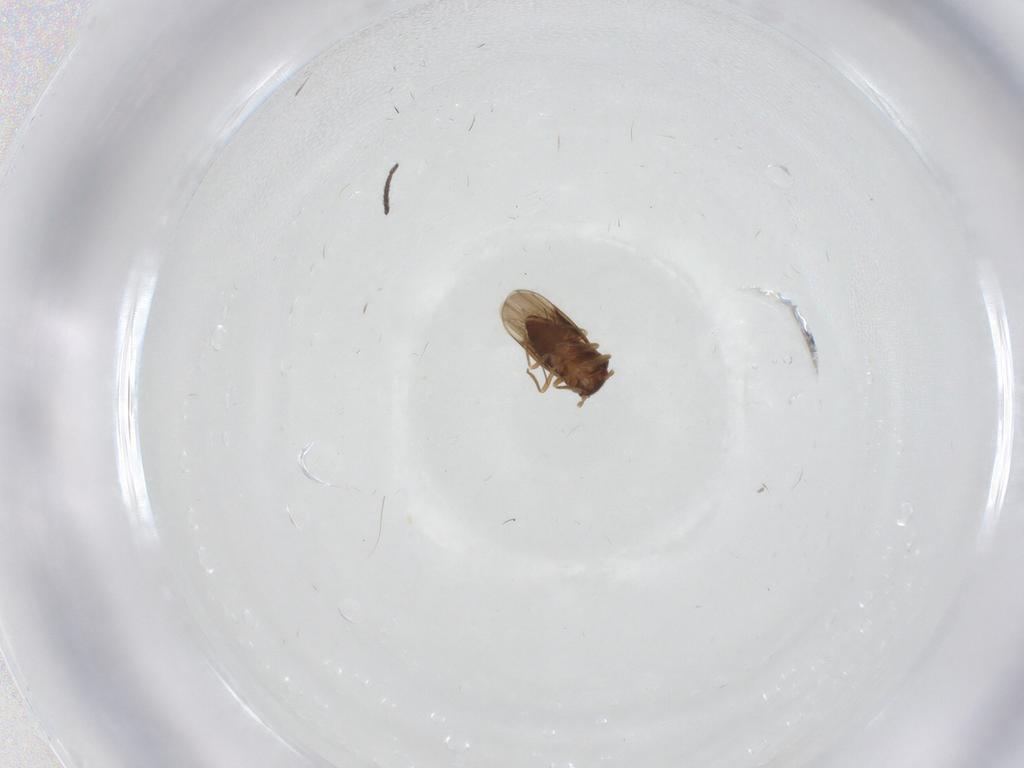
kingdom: Animalia
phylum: Arthropoda
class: Insecta
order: Hemiptera
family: Schizopteridae
